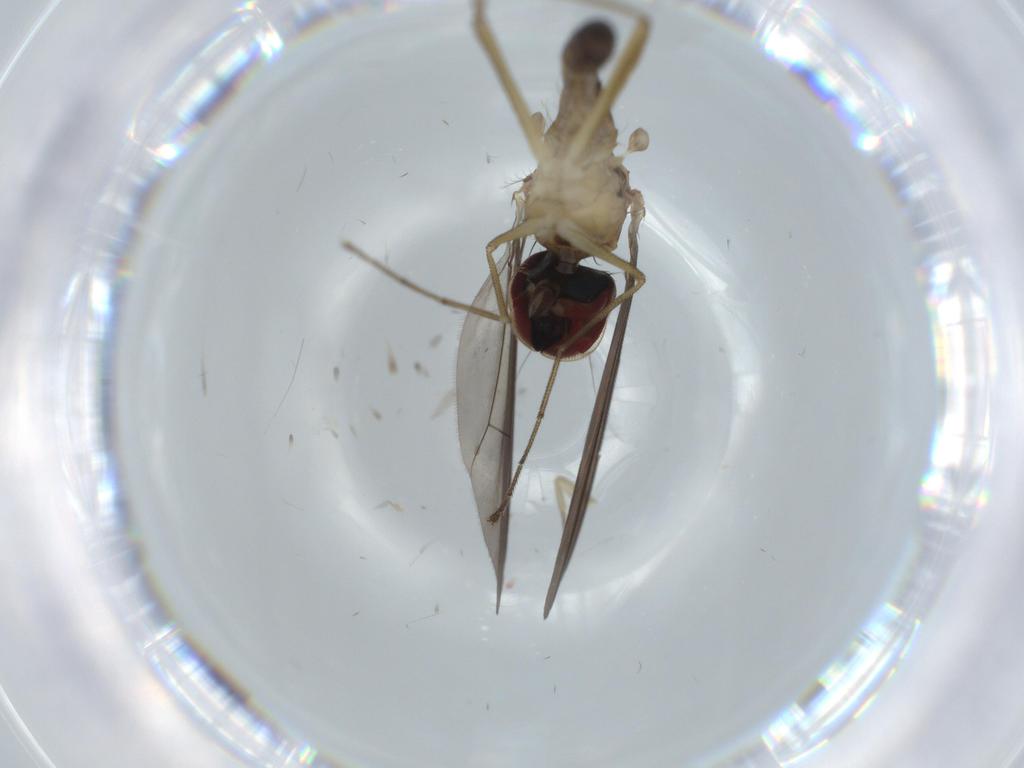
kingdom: Animalia
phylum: Arthropoda
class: Insecta
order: Diptera
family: Dolichopodidae
